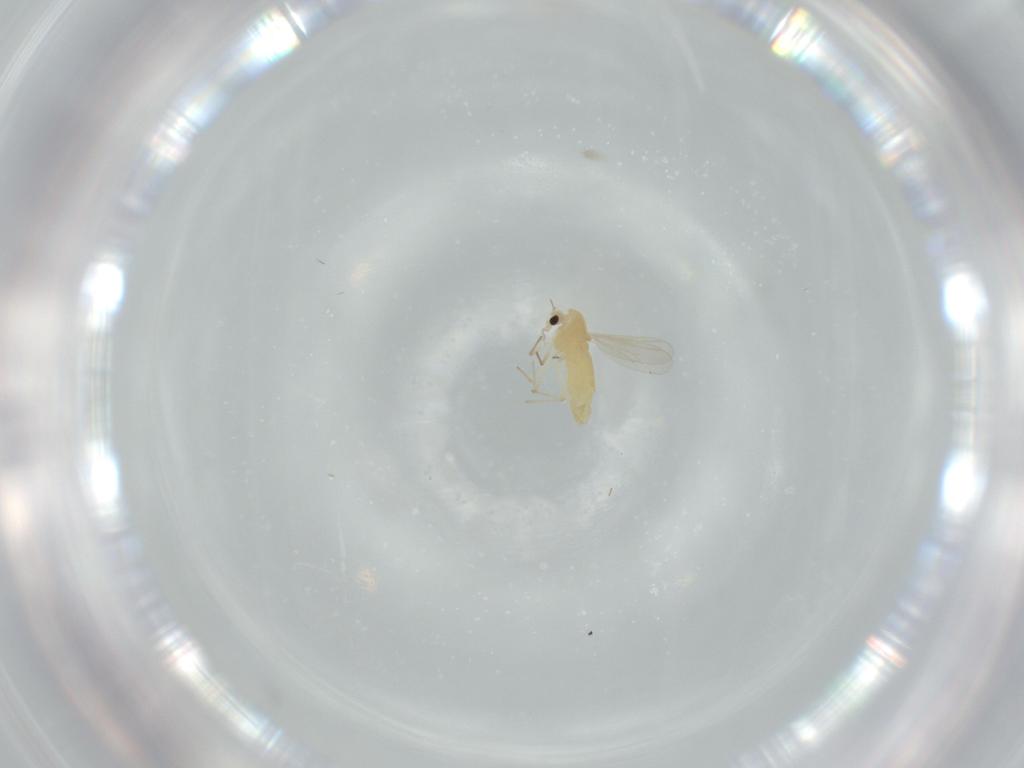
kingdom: Animalia
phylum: Arthropoda
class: Insecta
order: Diptera
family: Chironomidae
